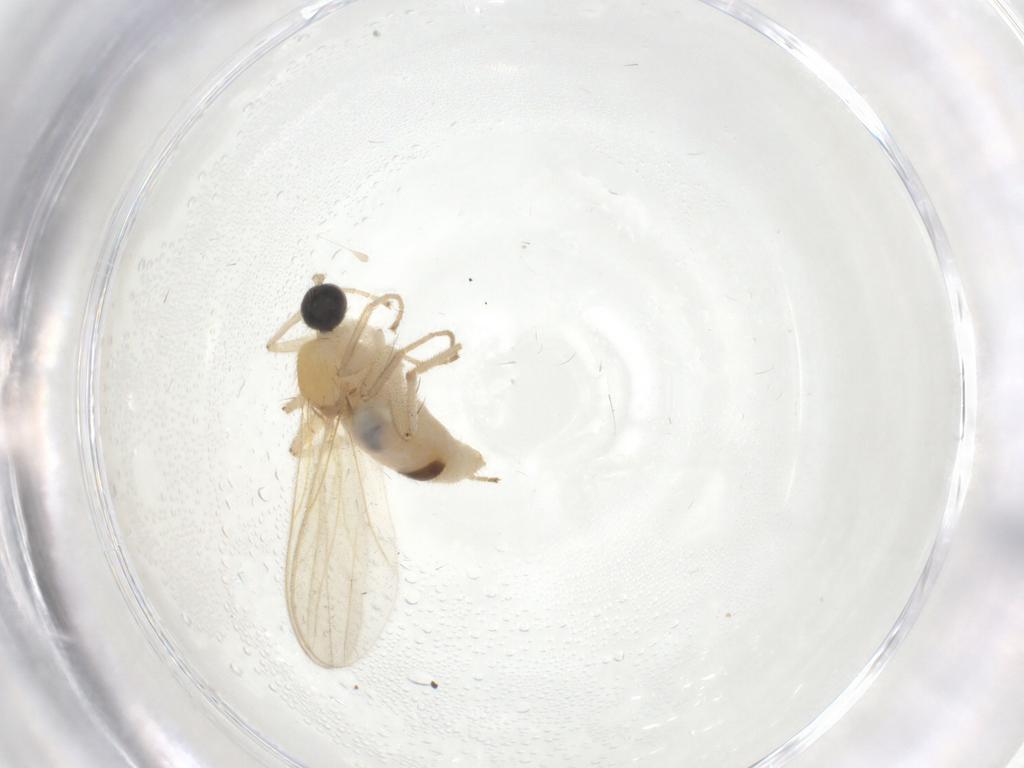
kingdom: Animalia
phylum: Arthropoda
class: Insecta
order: Diptera
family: Hybotidae
